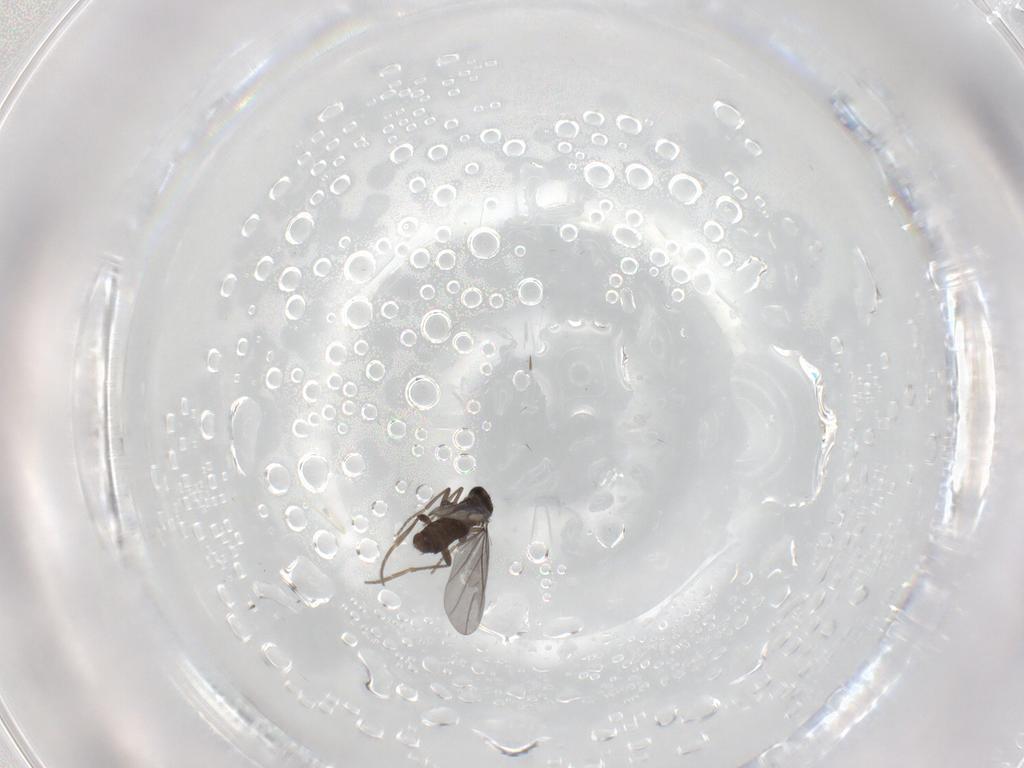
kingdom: Animalia
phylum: Arthropoda
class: Insecta
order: Diptera
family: Phoridae
